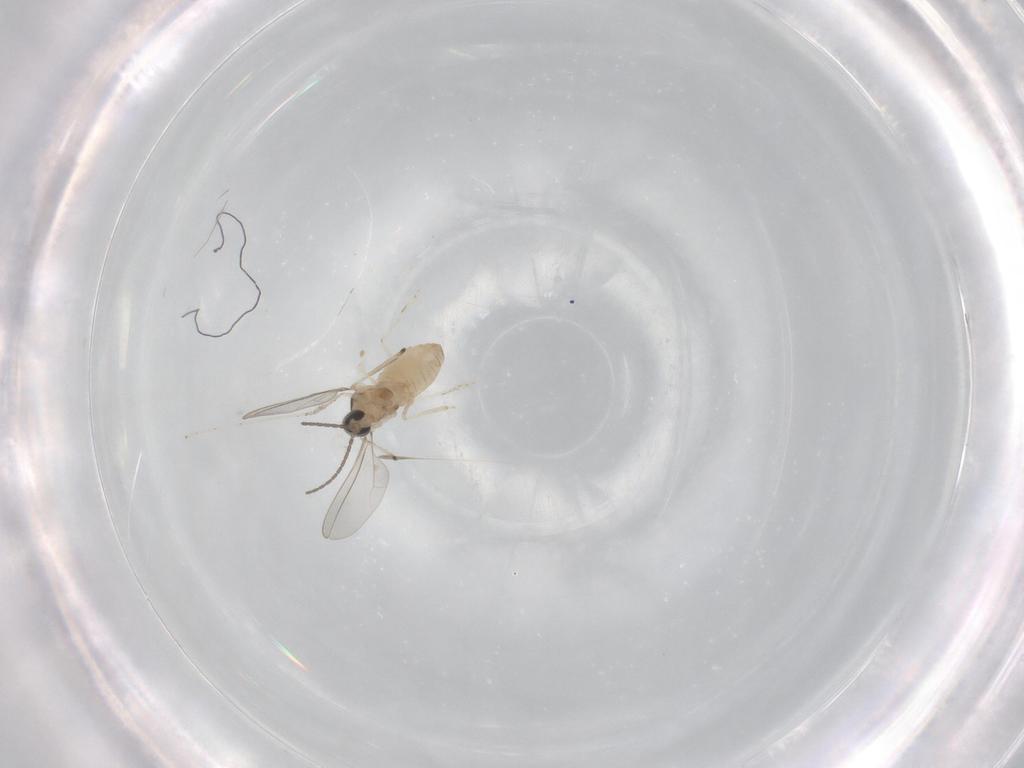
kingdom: Animalia
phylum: Arthropoda
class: Insecta
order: Diptera
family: Cecidomyiidae
